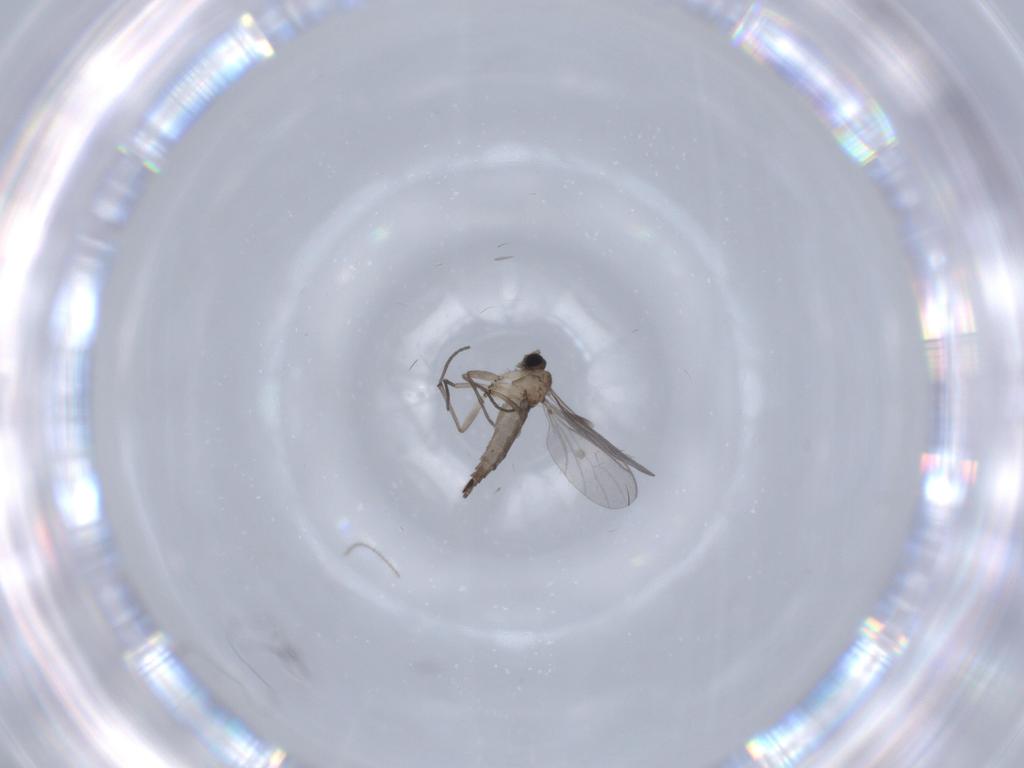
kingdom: Animalia
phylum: Arthropoda
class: Insecta
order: Diptera
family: Sciaridae
